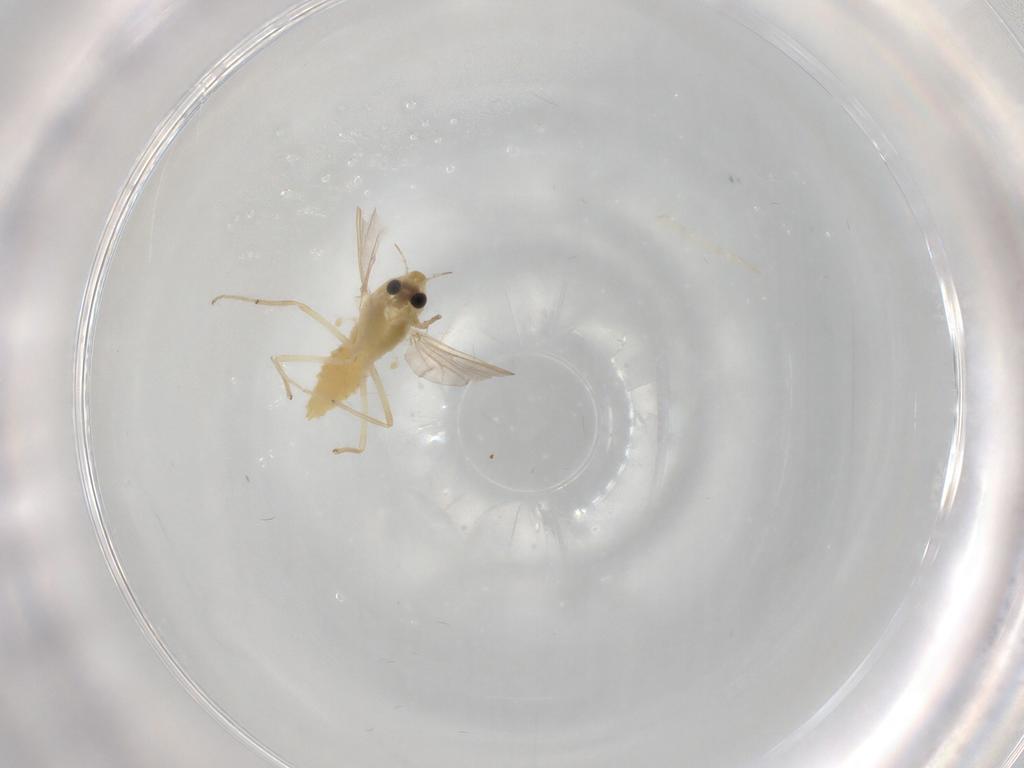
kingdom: Animalia
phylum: Arthropoda
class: Insecta
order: Diptera
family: Chironomidae
